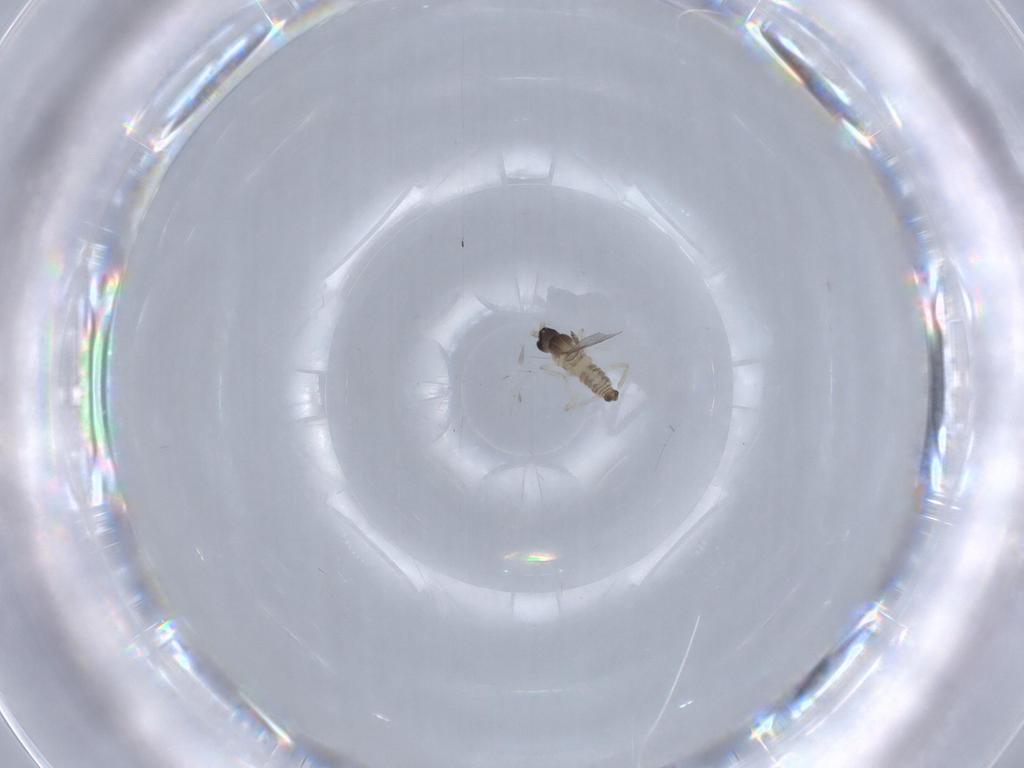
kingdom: Animalia
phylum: Arthropoda
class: Insecta
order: Diptera
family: Cecidomyiidae
